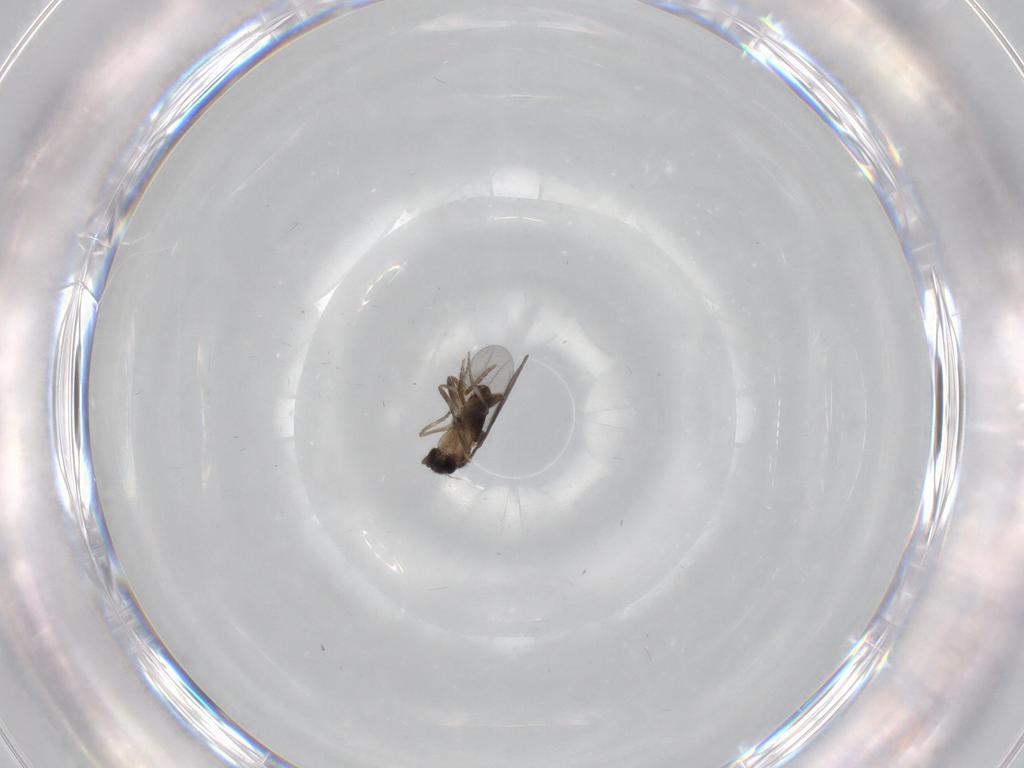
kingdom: Animalia
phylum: Arthropoda
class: Insecta
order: Diptera
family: Cecidomyiidae
